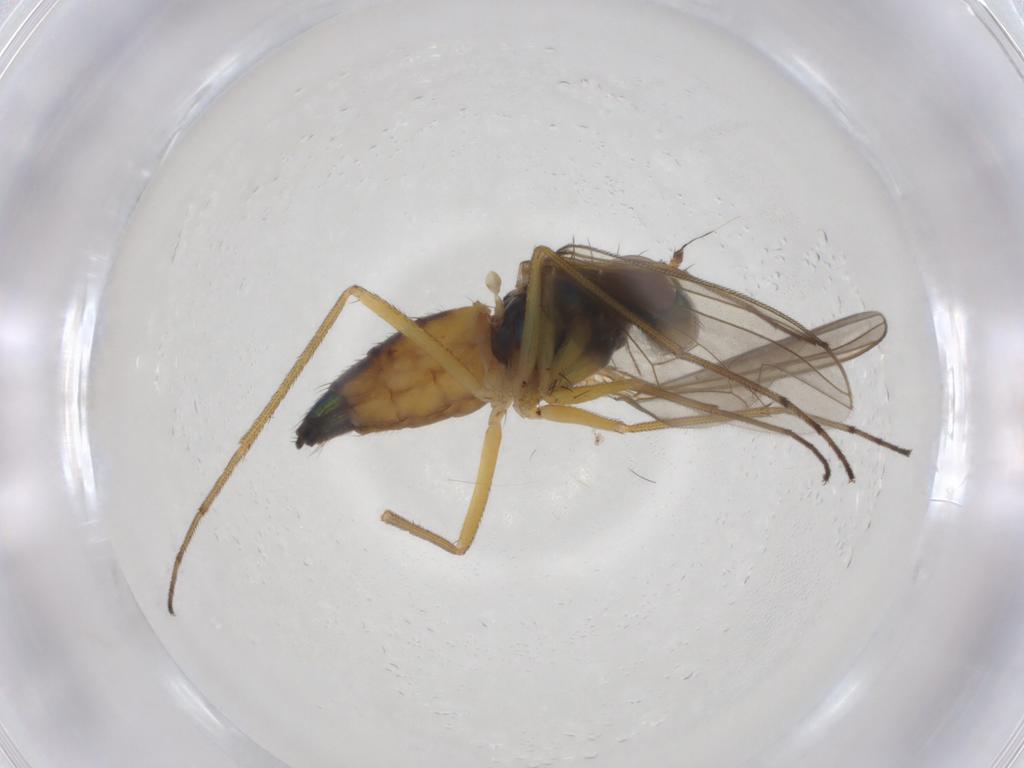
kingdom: Animalia
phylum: Arthropoda
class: Insecta
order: Diptera
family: Dolichopodidae
